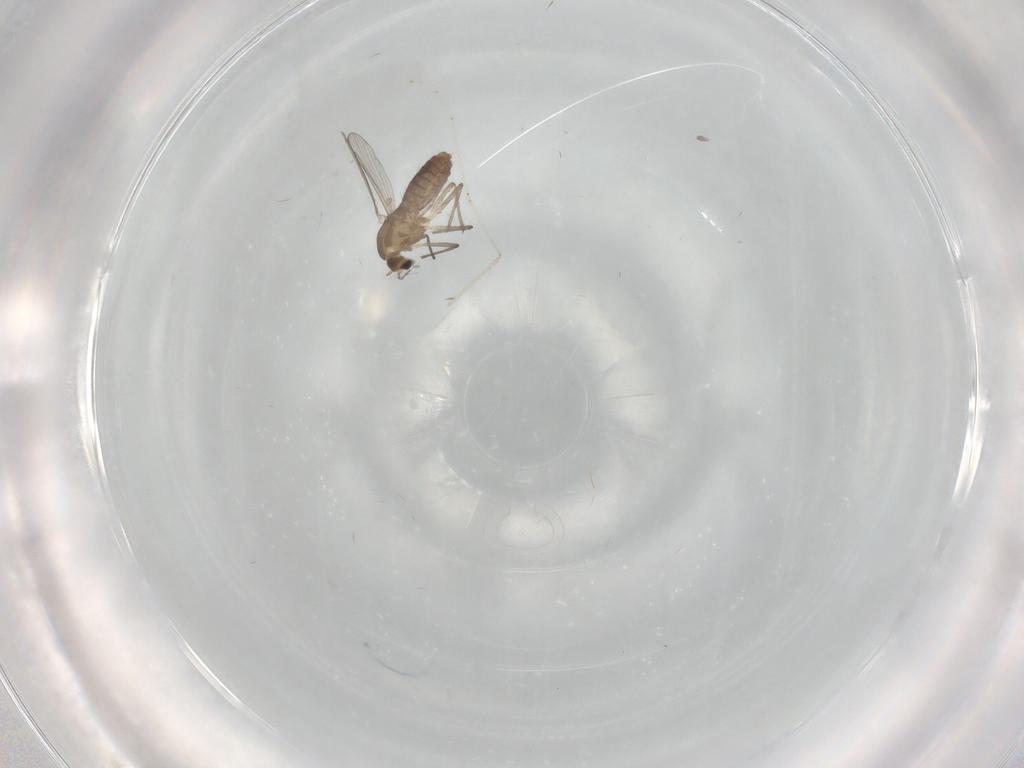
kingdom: Animalia
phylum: Arthropoda
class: Insecta
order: Diptera
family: Chironomidae
